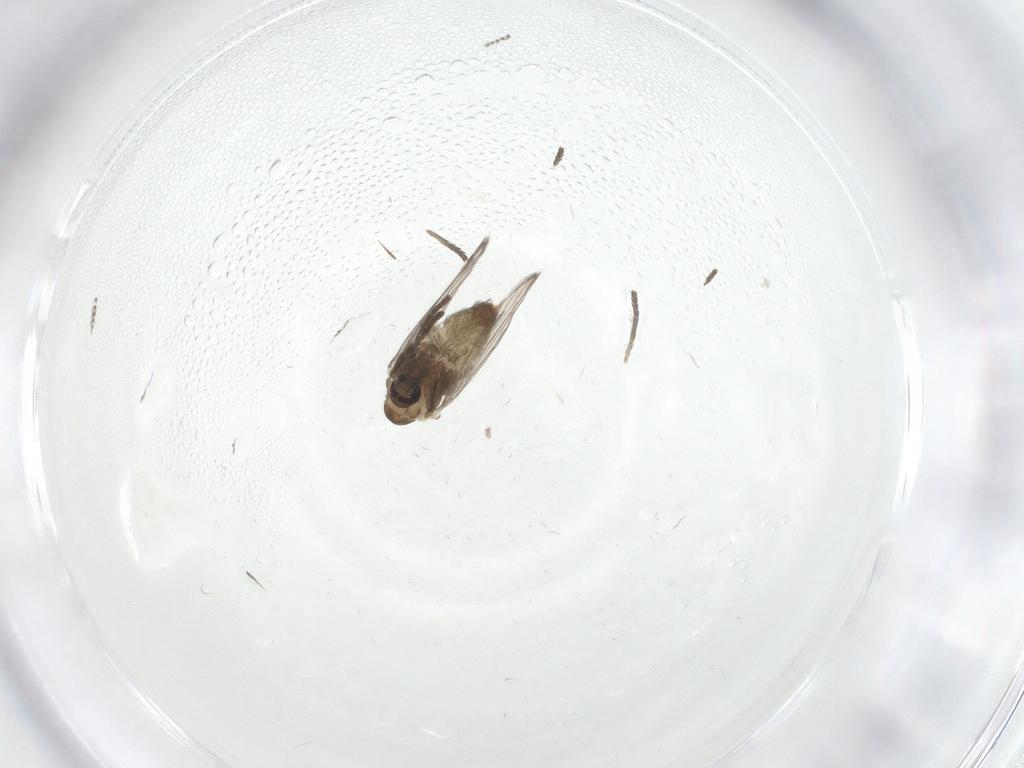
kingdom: Animalia
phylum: Arthropoda
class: Insecta
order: Diptera
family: Psychodidae
